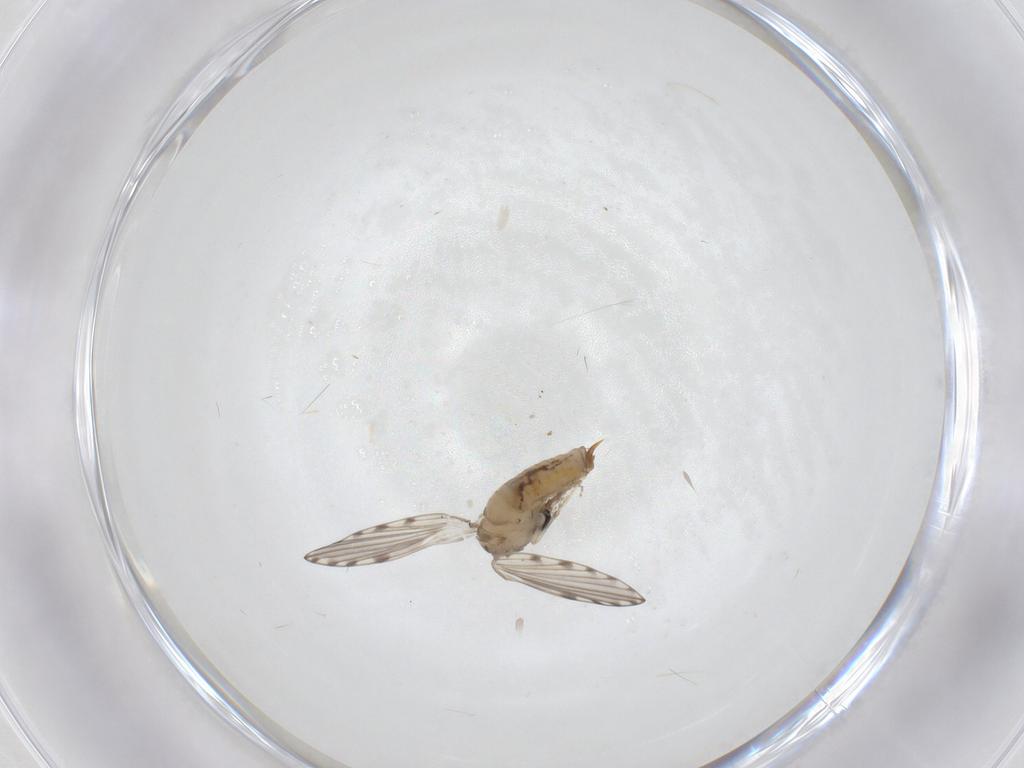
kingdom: Animalia
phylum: Arthropoda
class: Insecta
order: Diptera
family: Psychodidae
